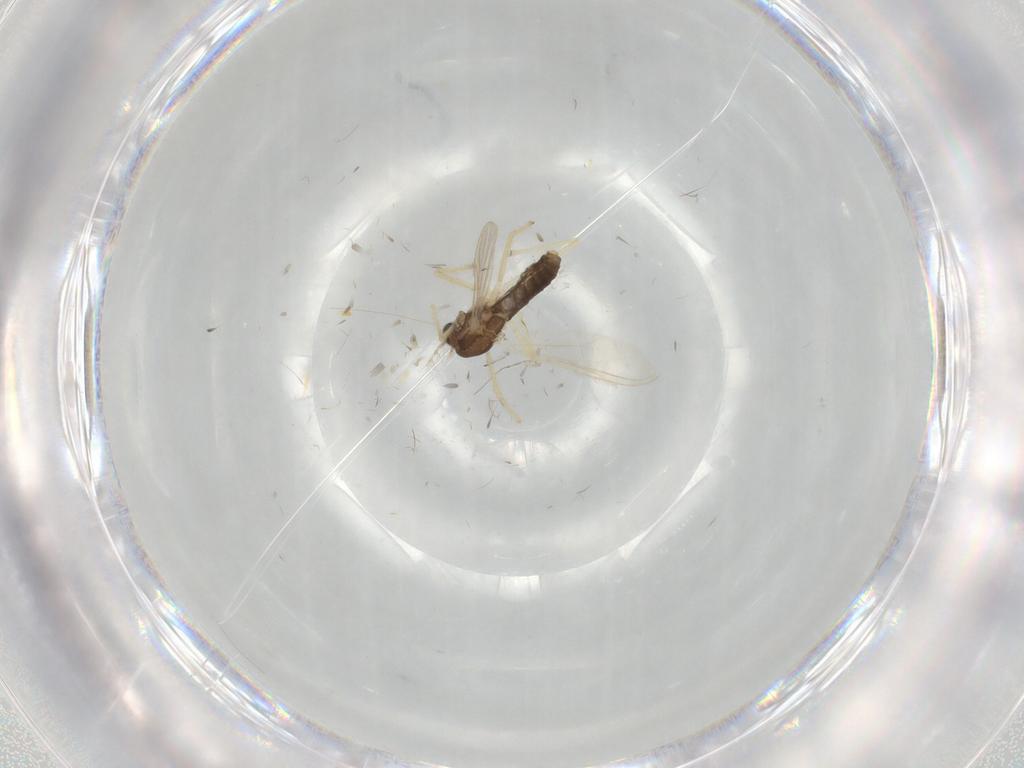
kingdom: Animalia
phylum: Arthropoda
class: Insecta
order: Diptera
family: Chironomidae
